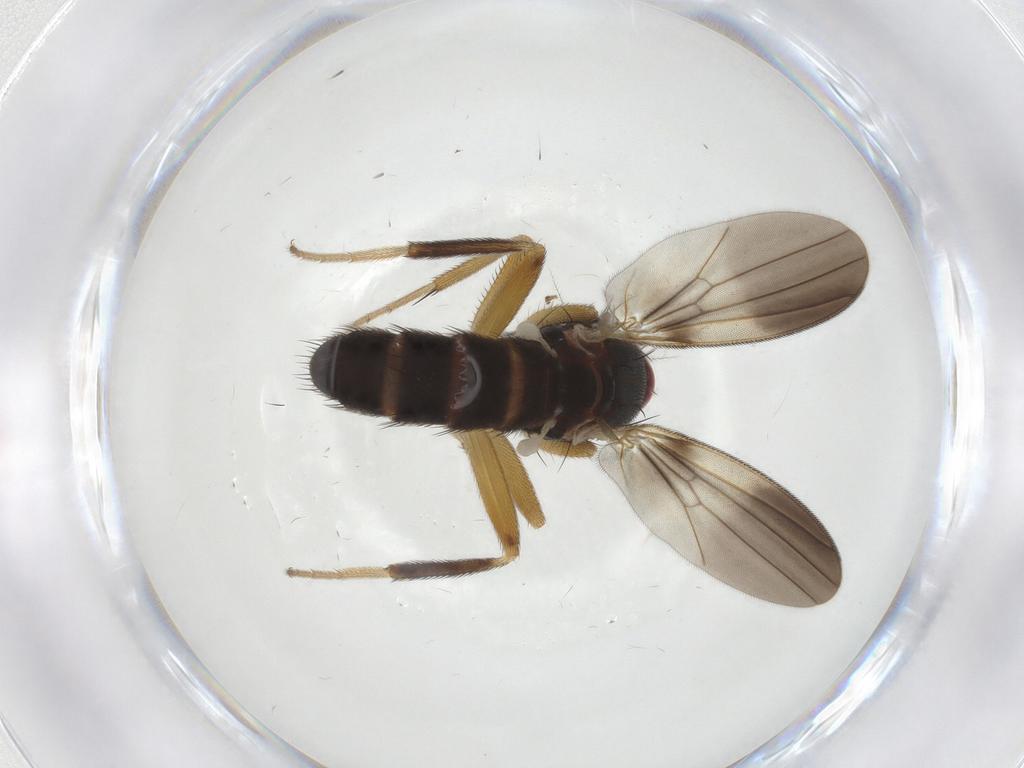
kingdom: Animalia
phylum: Arthropoda
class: Insecta
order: Diptera
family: Clusiidae
